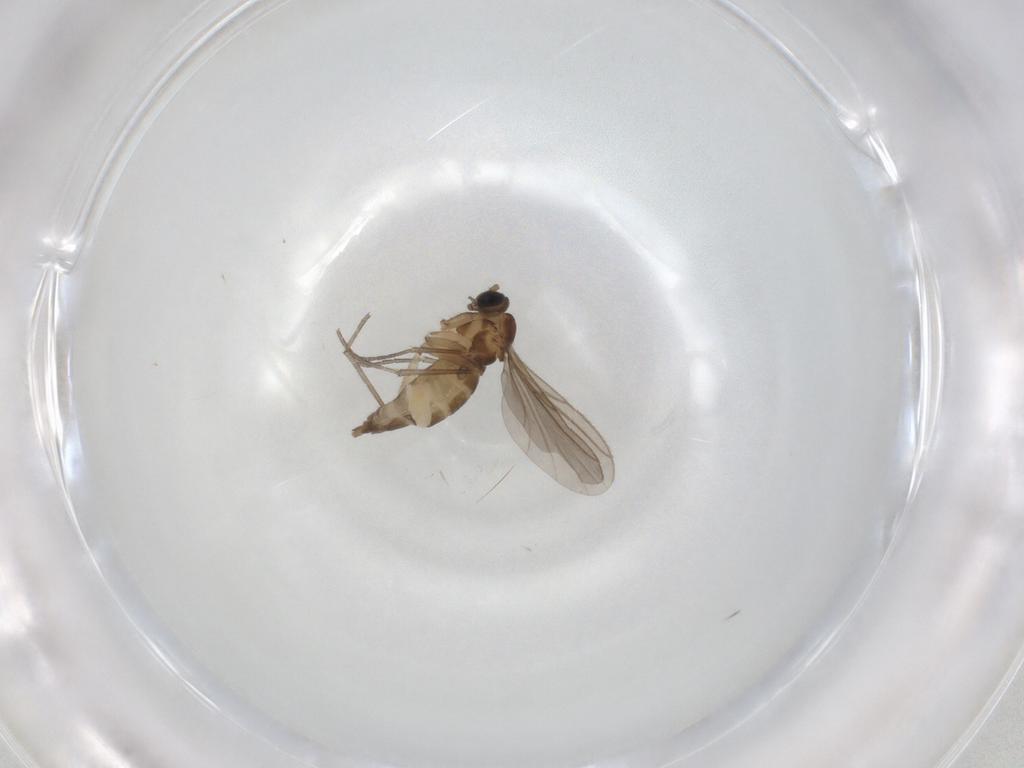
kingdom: Animalia
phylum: Arthropoda
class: Insecta
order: Diptera
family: Sciaridae
